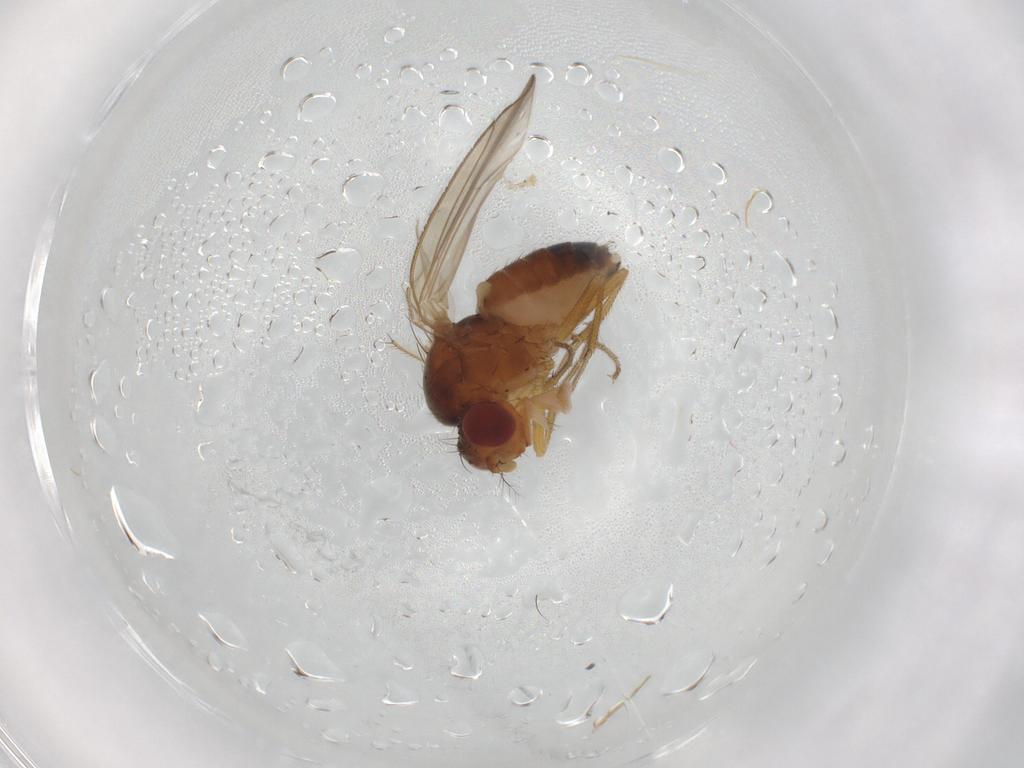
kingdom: Animalia
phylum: Arthropoda
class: Insecta
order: Diptera
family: Drosophilidae
